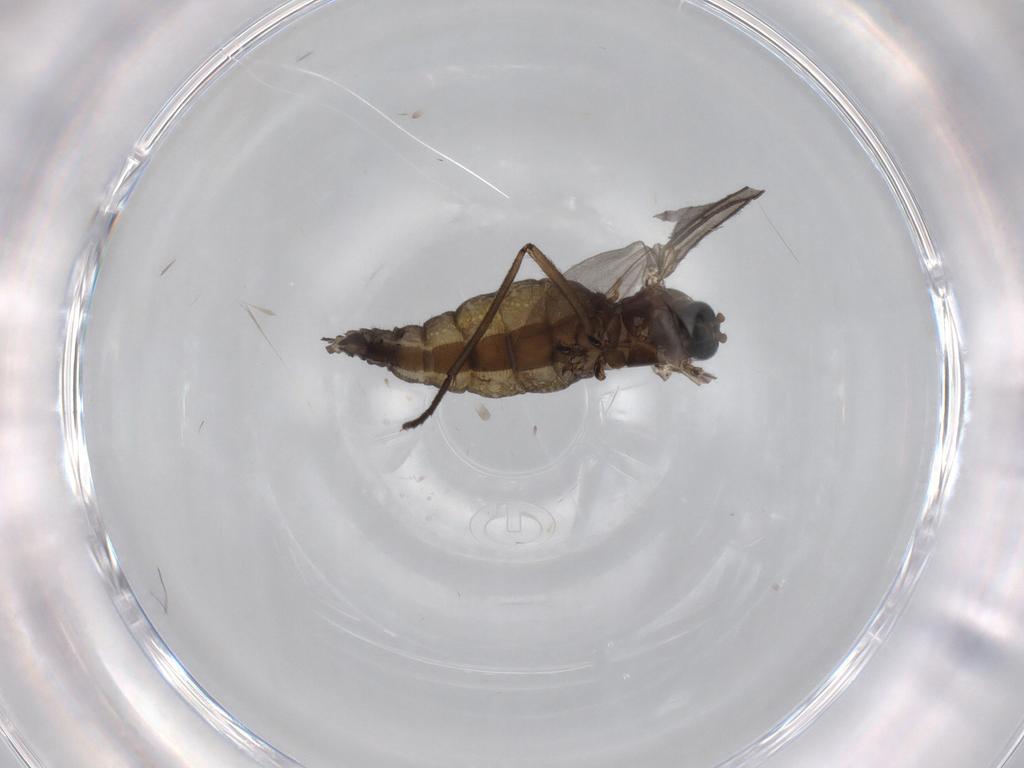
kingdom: Animalia
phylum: Arthropoda
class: Insecta
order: Diptera
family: Sciaridae
